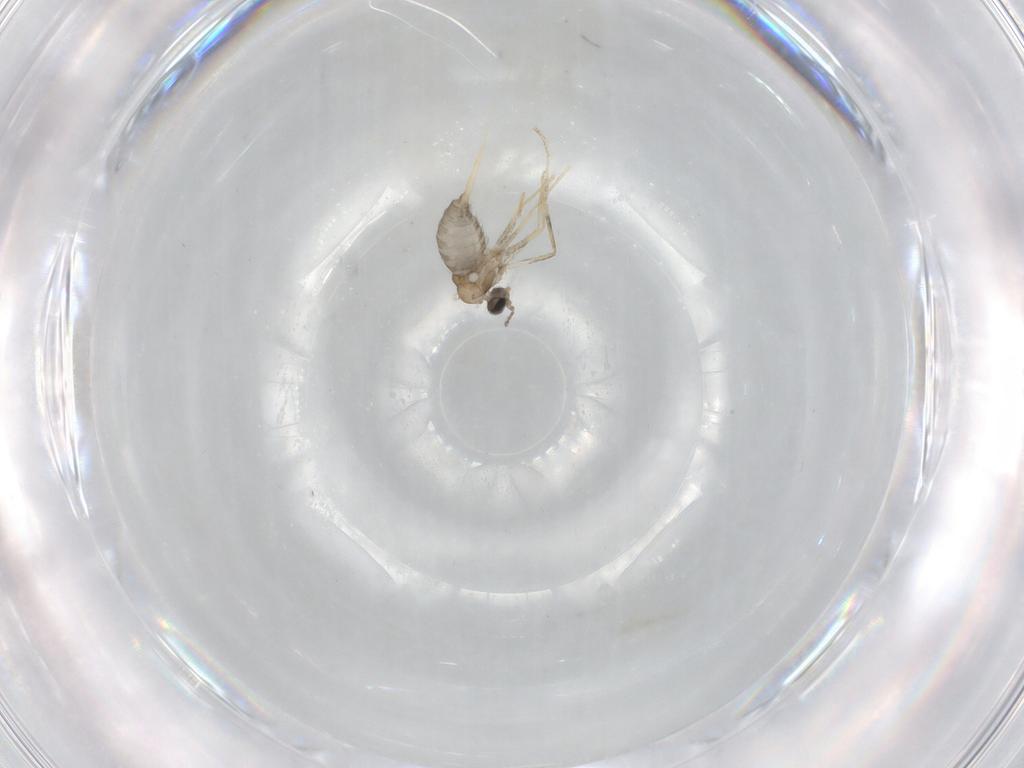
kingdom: Animalia
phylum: Arthropoda
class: Insecta
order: Diptera
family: Cecidomyiidae
